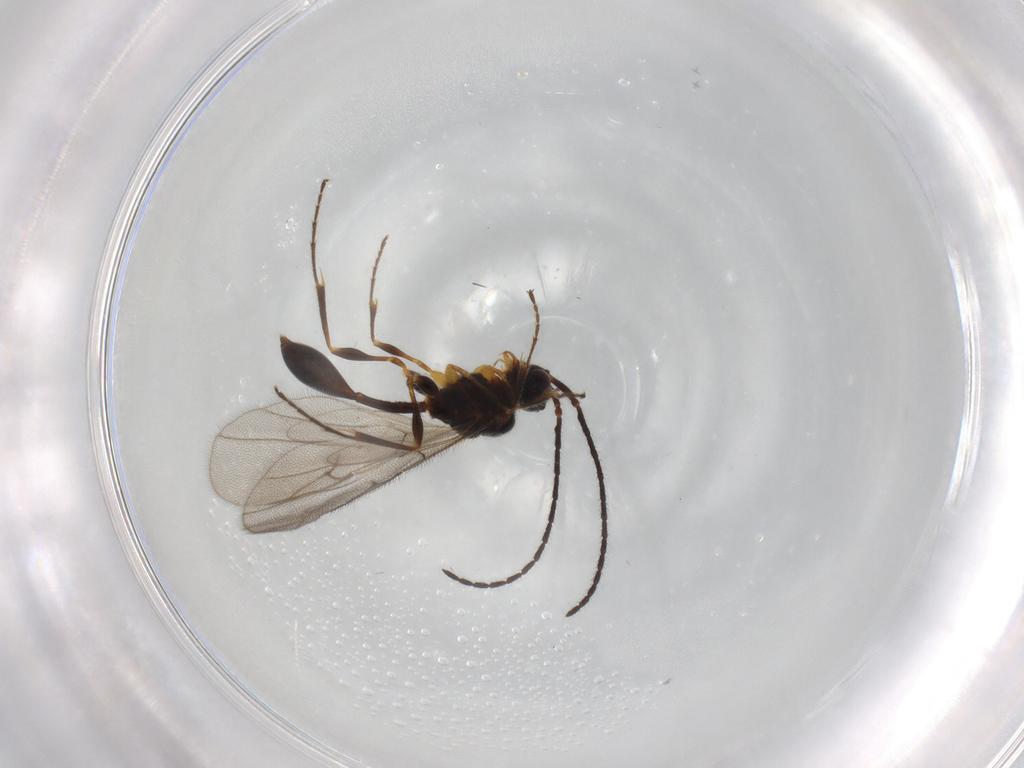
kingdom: Animalia
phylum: Arthropoda
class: Insecta
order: Hymenoptera
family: Diapriidae
